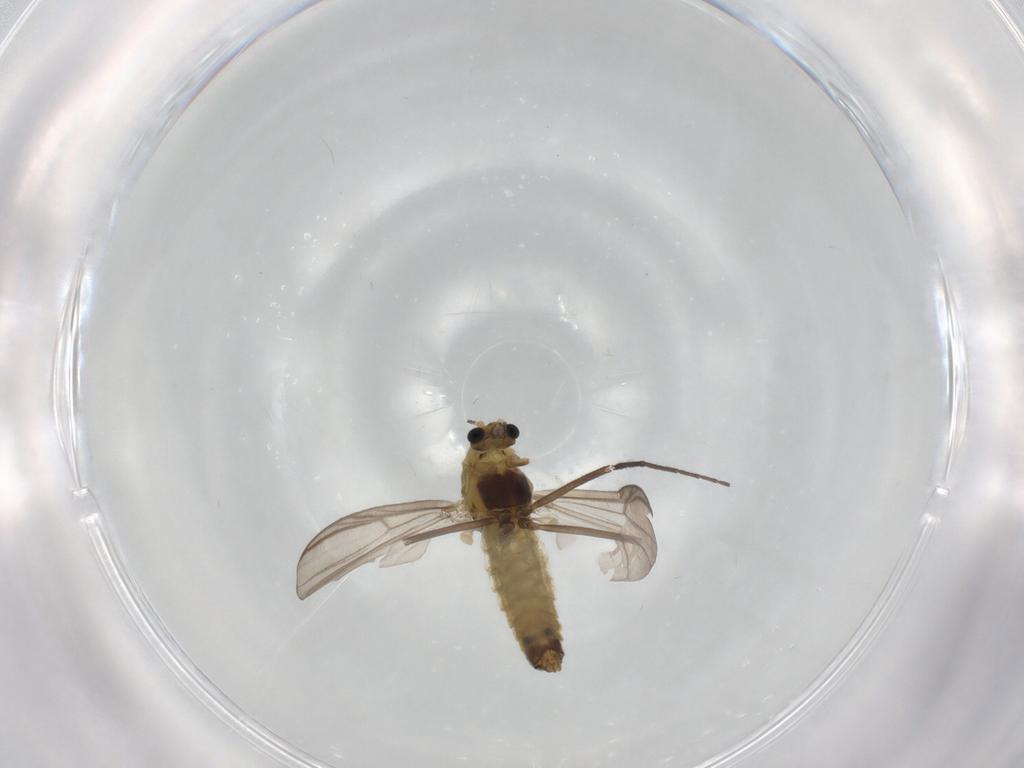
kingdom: Animalia
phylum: Arthropoda
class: Insecta
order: Diptera
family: Chironomidae
